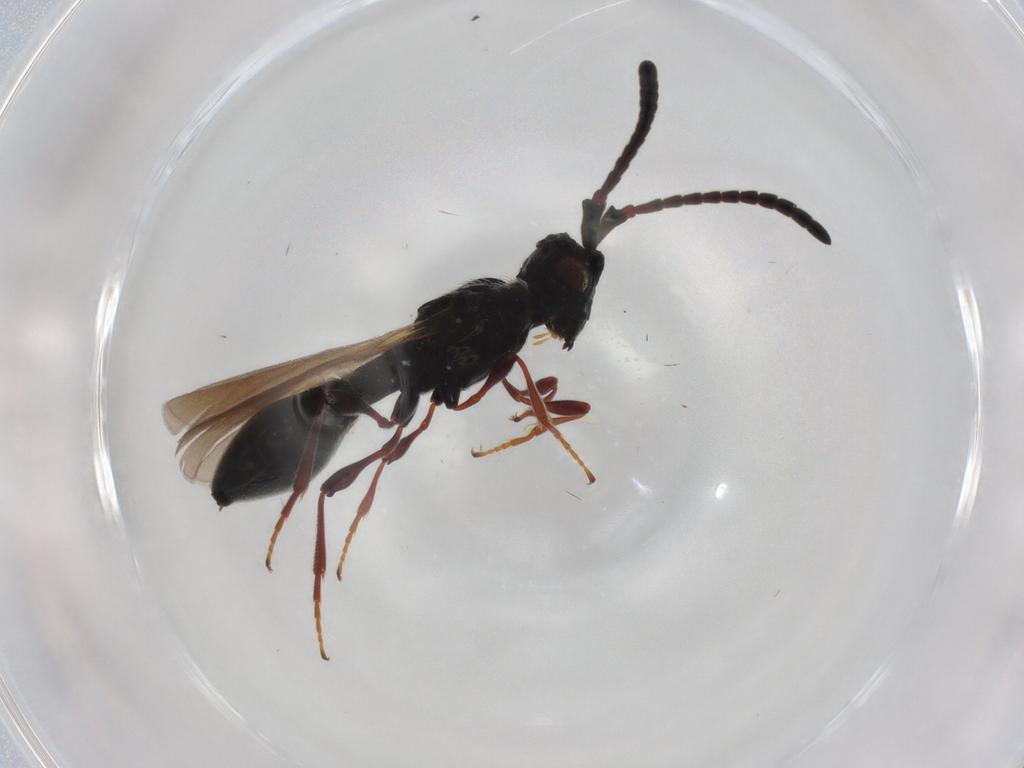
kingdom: Animalia
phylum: Arthropoda
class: Insecta
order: Hymenoptera
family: Diapriidae
